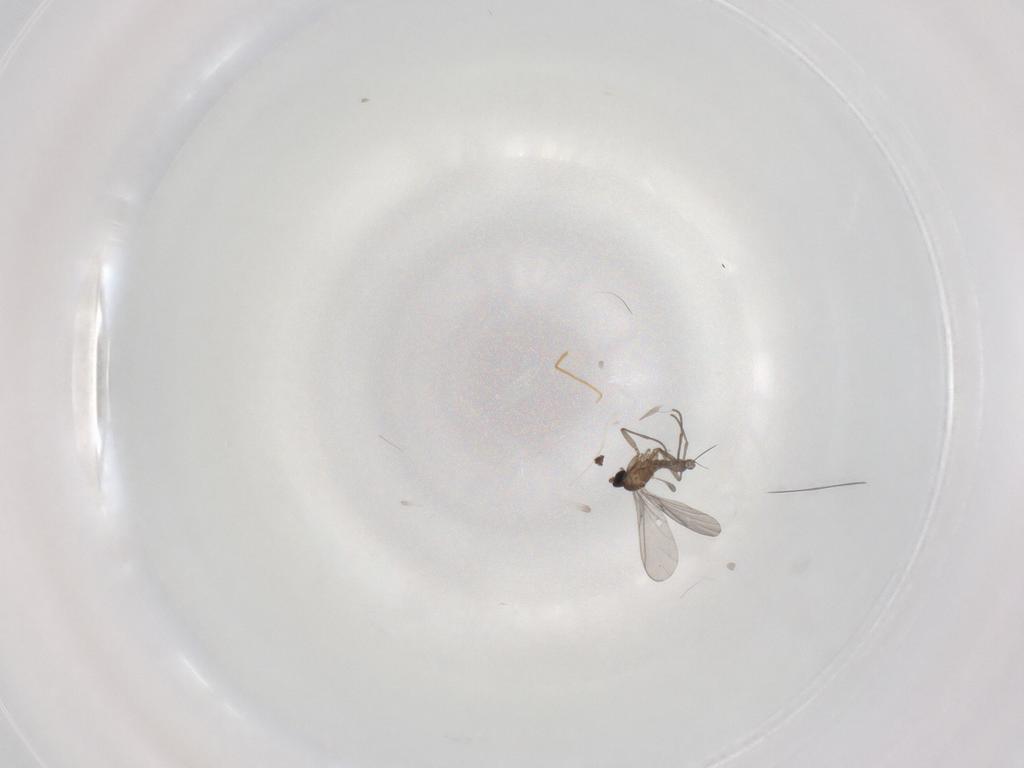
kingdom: Animalia
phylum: Arthropoda
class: Insecta
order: Diptera
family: Sciaridae
